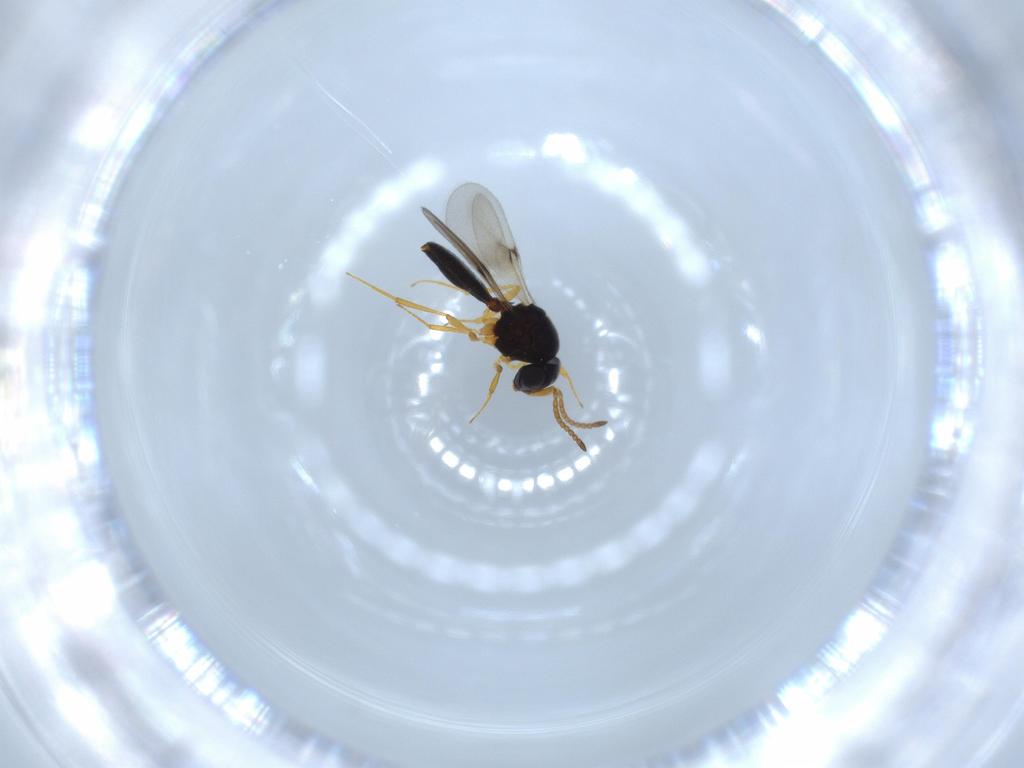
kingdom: Animalia
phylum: Arthropoda
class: Insecta
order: Hymenoptera
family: Scelionidae
